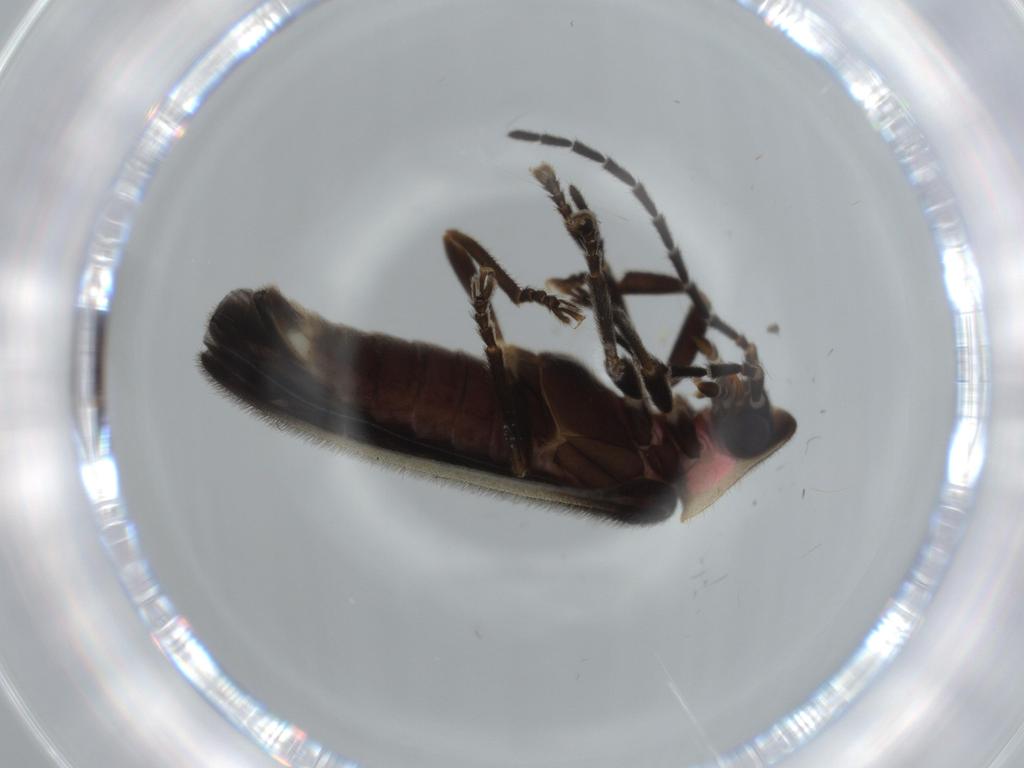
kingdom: Animalia
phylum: Arthropoda
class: Insecta
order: Coleoptera
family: Lampyridae
